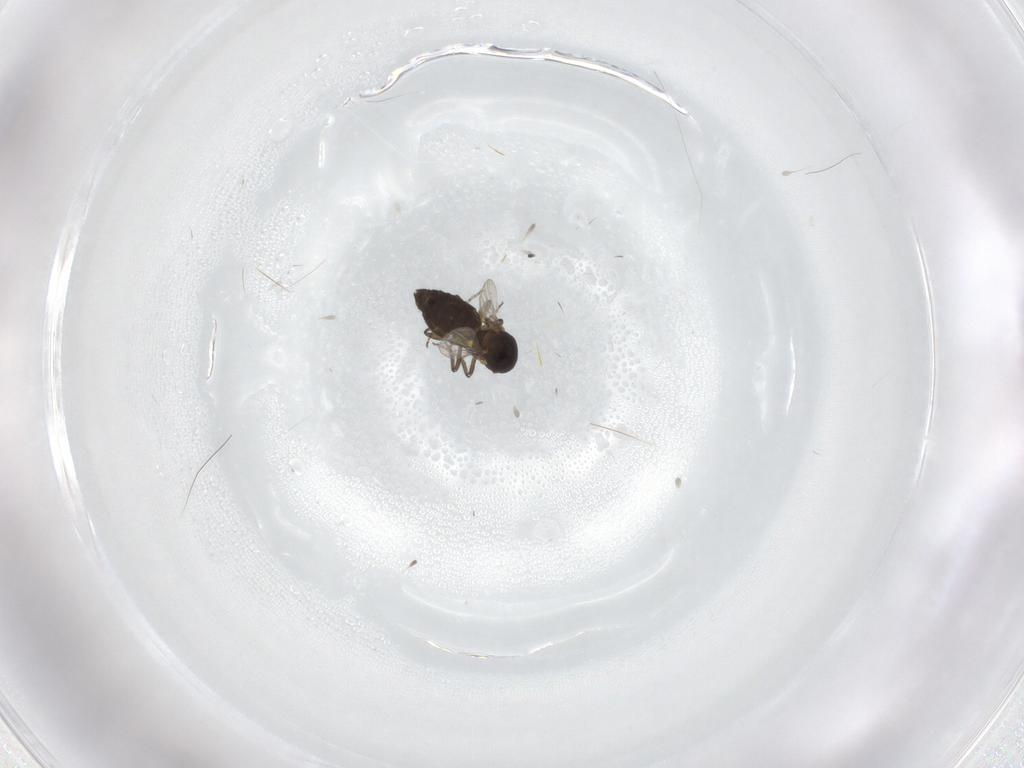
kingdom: Animalia
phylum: Arthropoda
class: Insecta
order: Diptera
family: Ceratopogonidae
